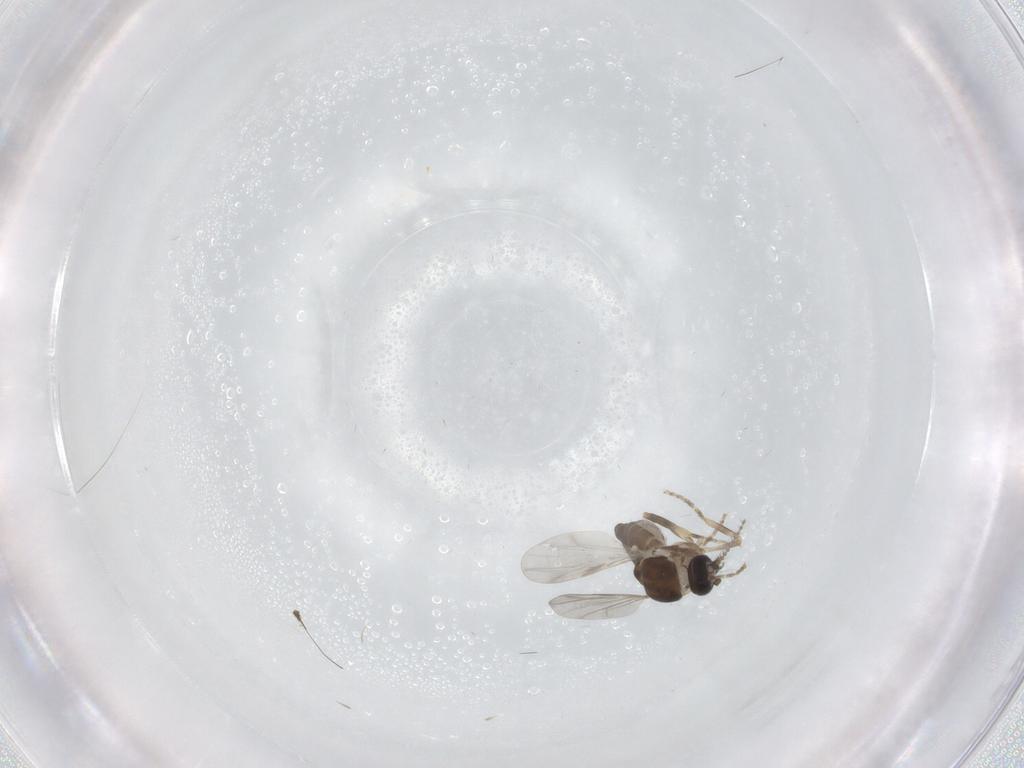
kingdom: Animalia
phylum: Arthropoda
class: Insecta
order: Diptera
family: Ceratopogonidae
